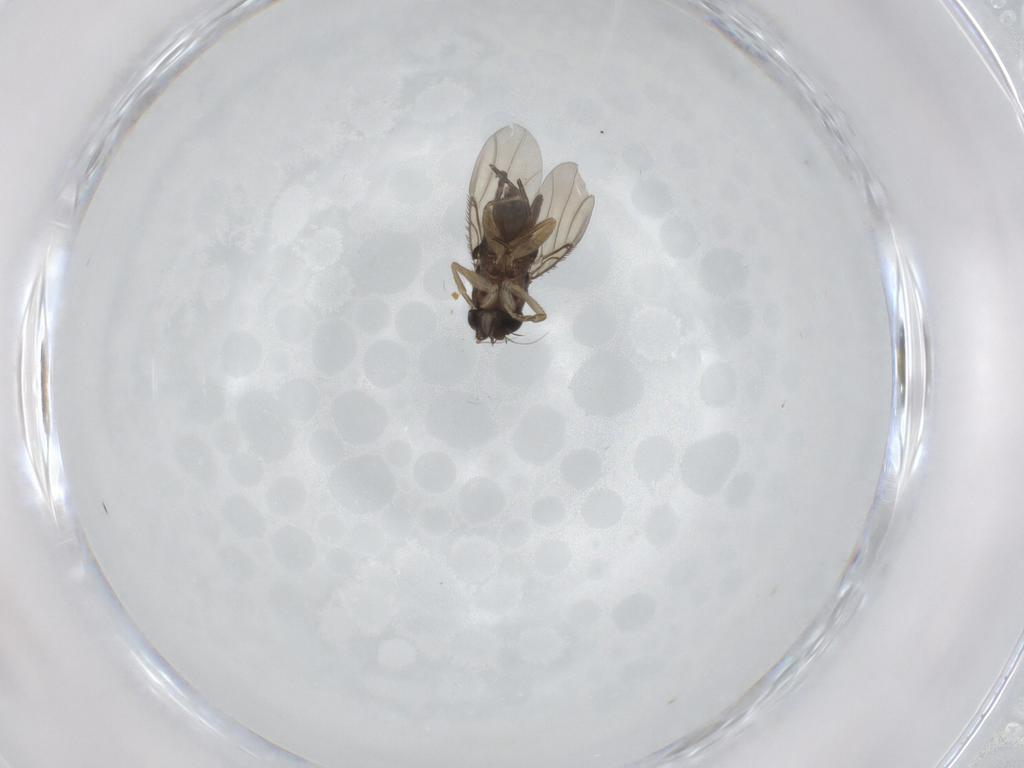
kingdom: Animalia
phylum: Arthropoda
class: Insecta
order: Diptera
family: Phoridae
